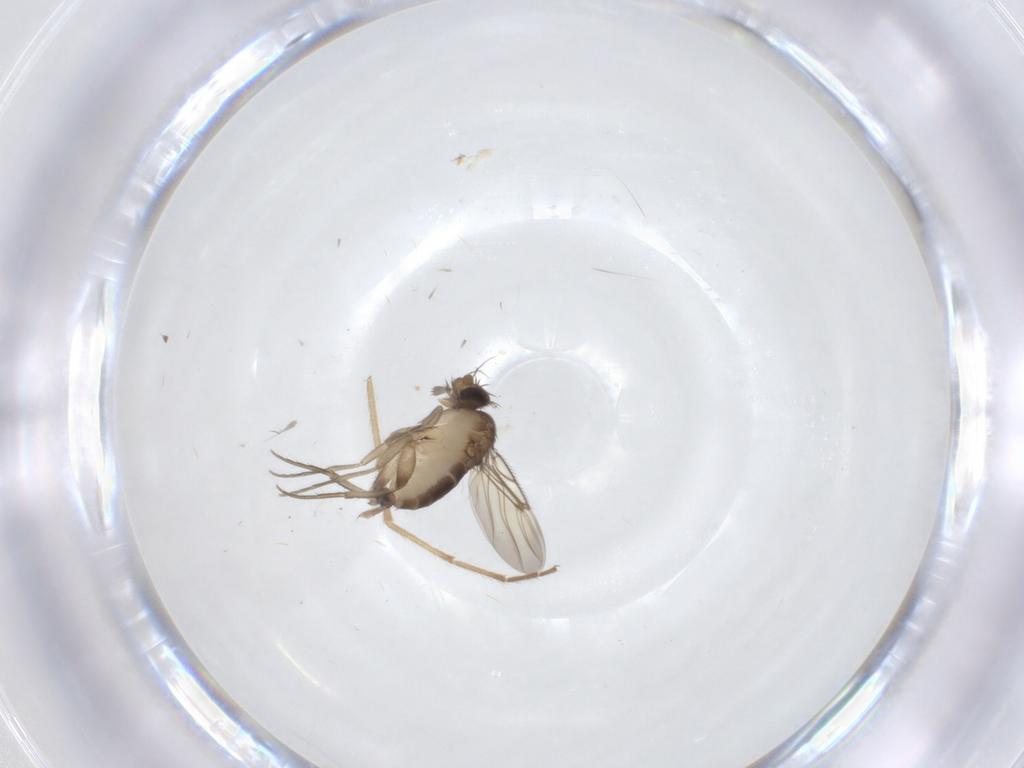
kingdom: Animalia
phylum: Arthropoda
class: Insecta
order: Diptera
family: Phoridae
